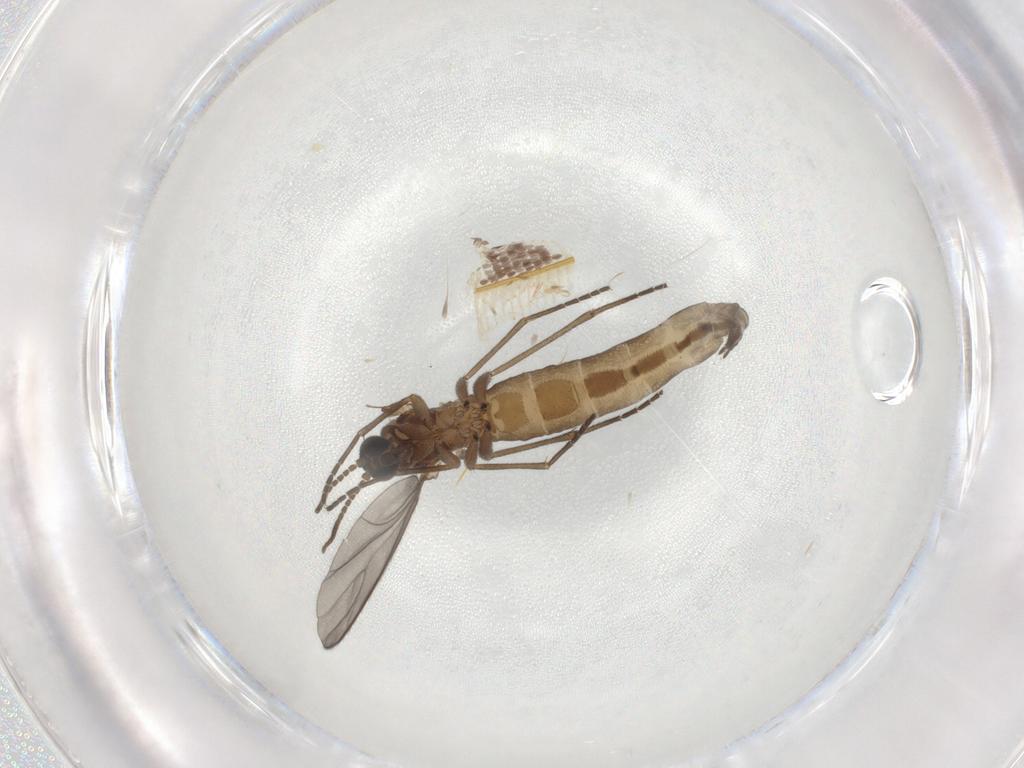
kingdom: Animalia
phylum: Arthropoda
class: Insecta
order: Diptera
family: Sciaridae
